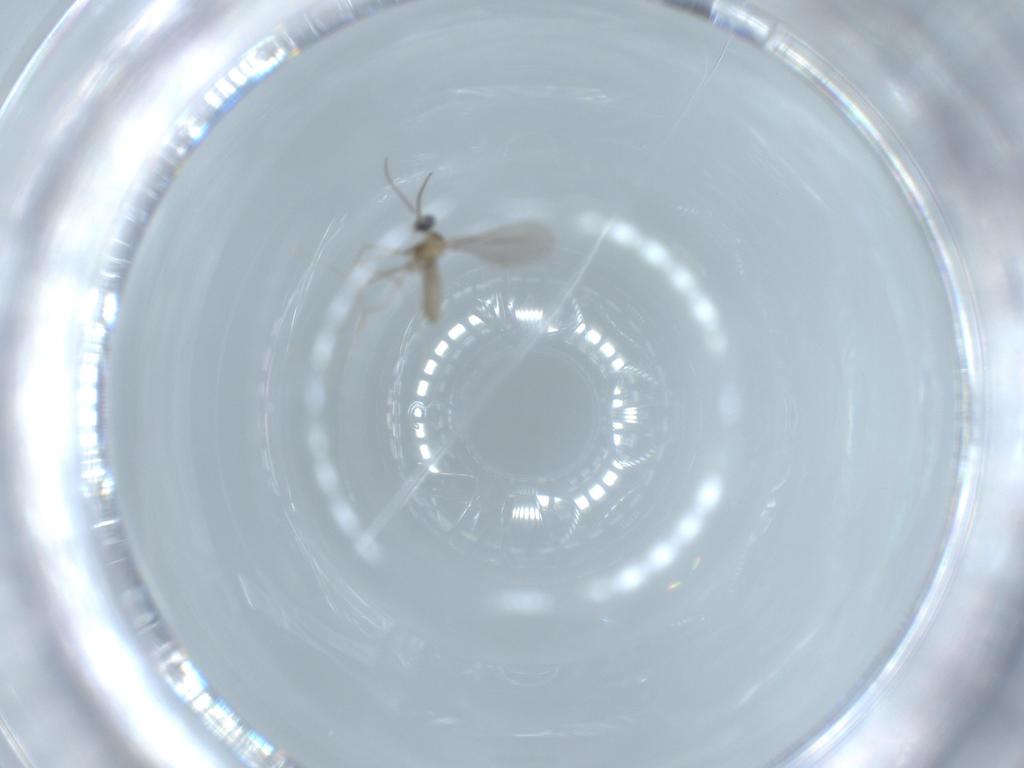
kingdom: Animalia
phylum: Arthropoda
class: Insecta
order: Diptera
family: Cecidomyiidae
